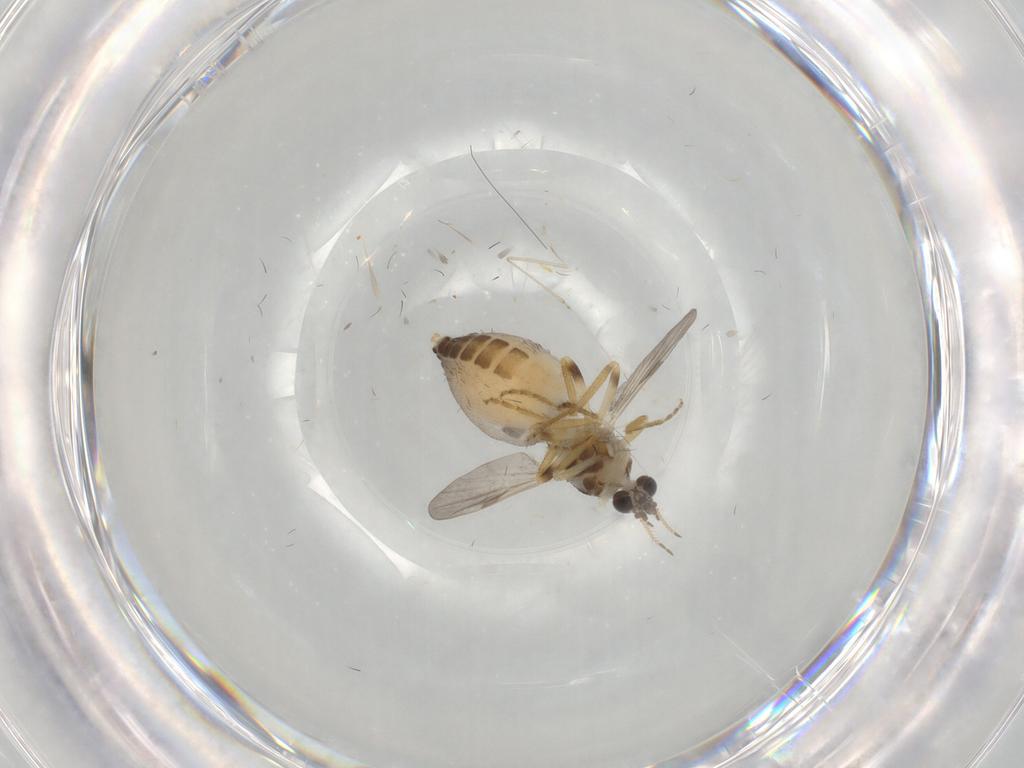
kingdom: Animalia
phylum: Arthropoda
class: Insecta
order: Diptera
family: Ceratopogonidae
